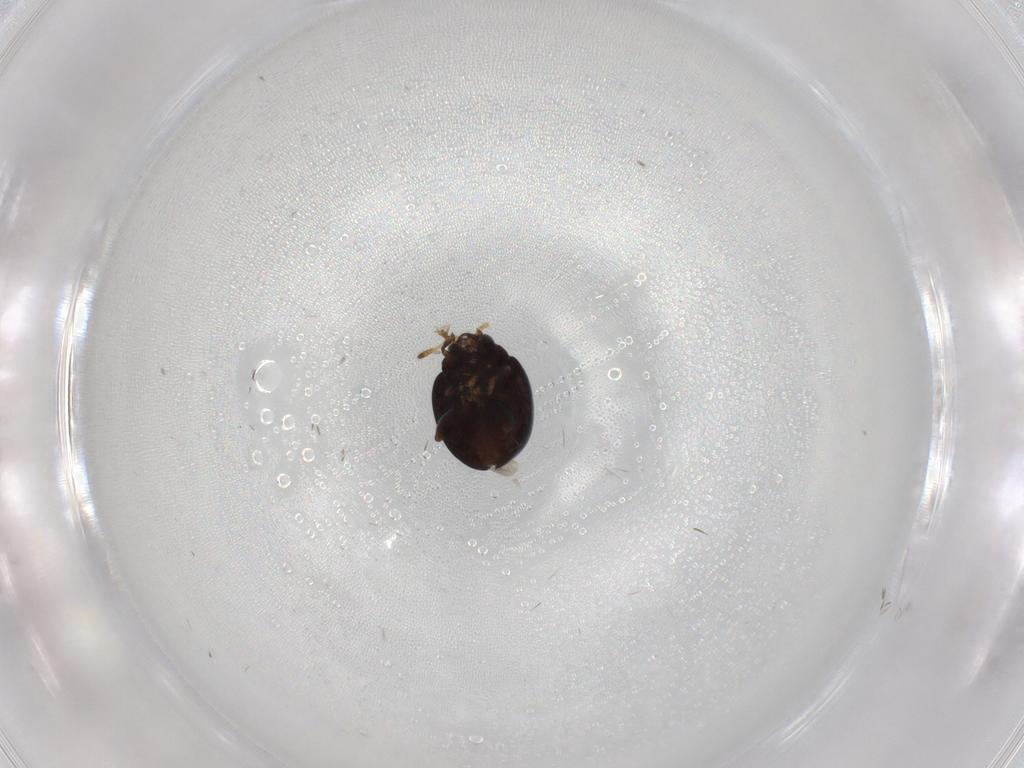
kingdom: Animalia
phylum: Arthropoda
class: Insecta
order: Coleoptera
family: Chrysomelidae
